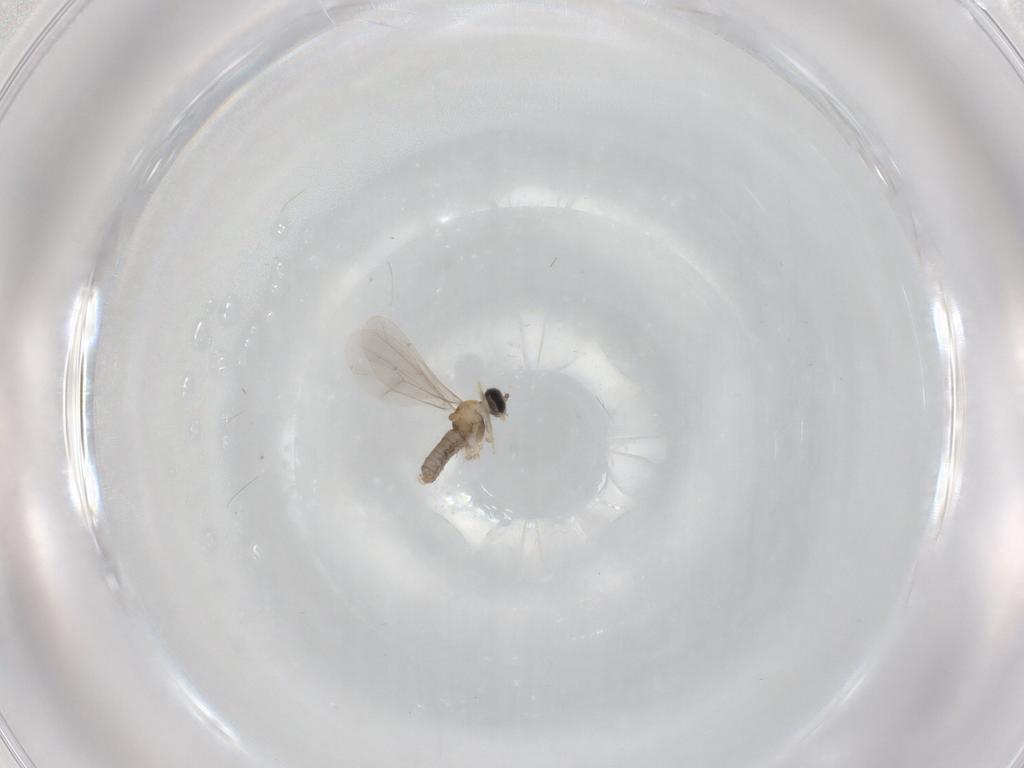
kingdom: Animalia
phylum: Arthropoda
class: Insecta
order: Diptera
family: Cecidomyiidae
